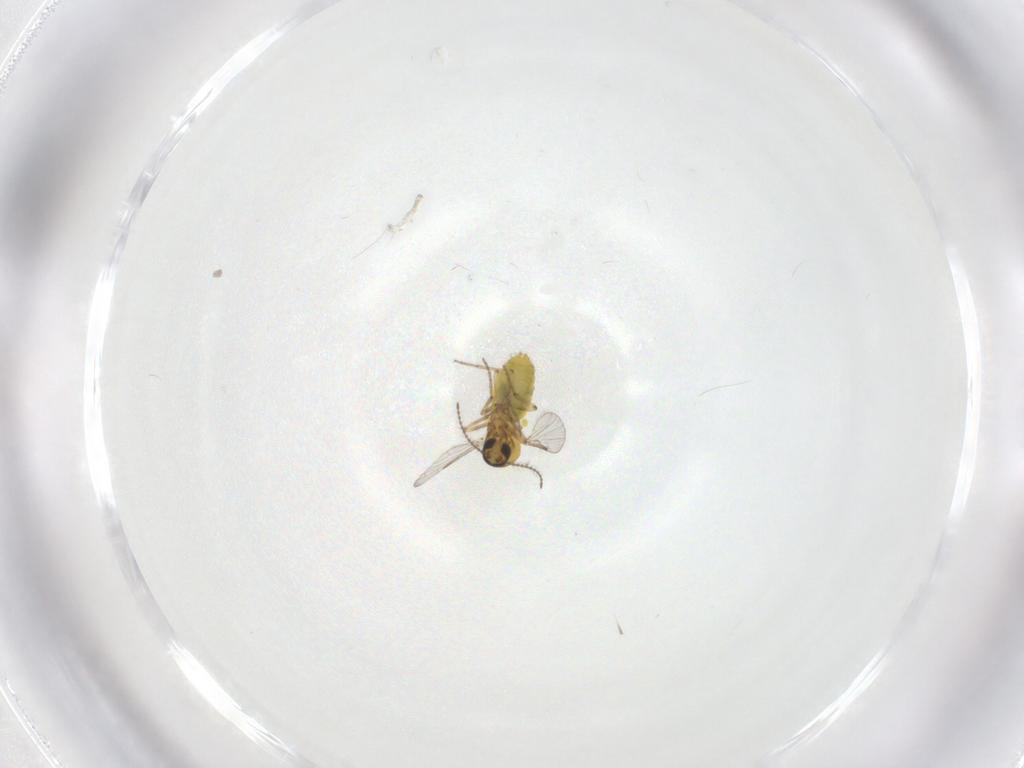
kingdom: Animalia
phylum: Arthropoda
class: Insecta
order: Diptera
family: Ceratopogonidae
